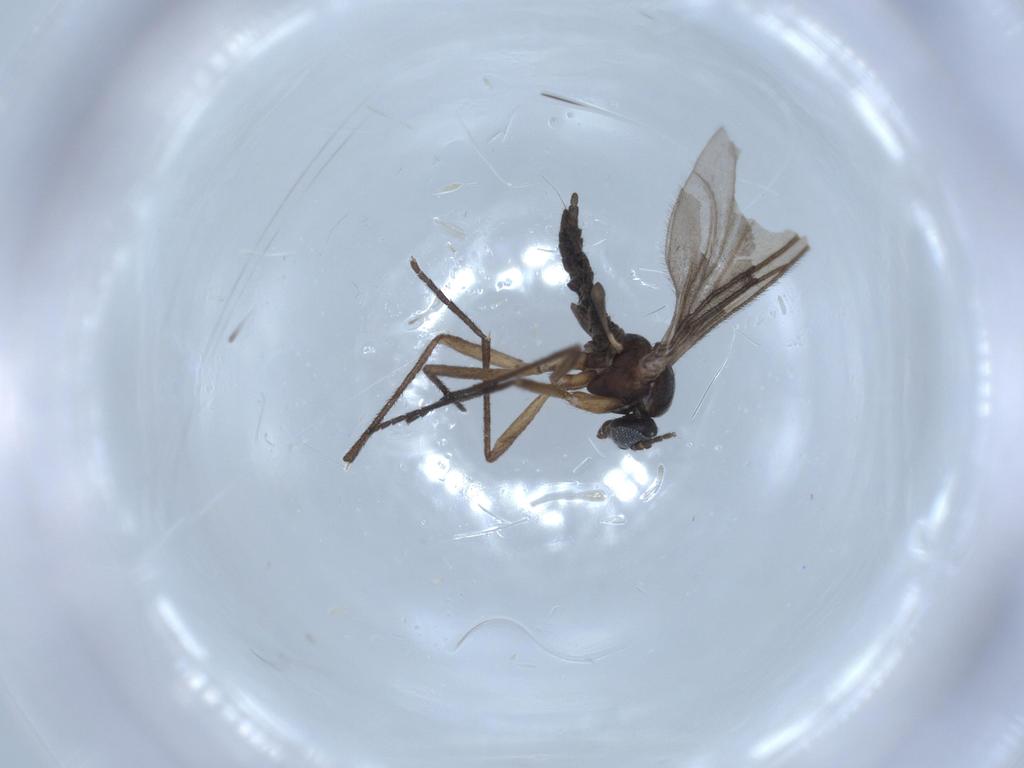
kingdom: Animalia
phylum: Arthropoda
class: Insecta
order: Diptera
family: Sciaridae
